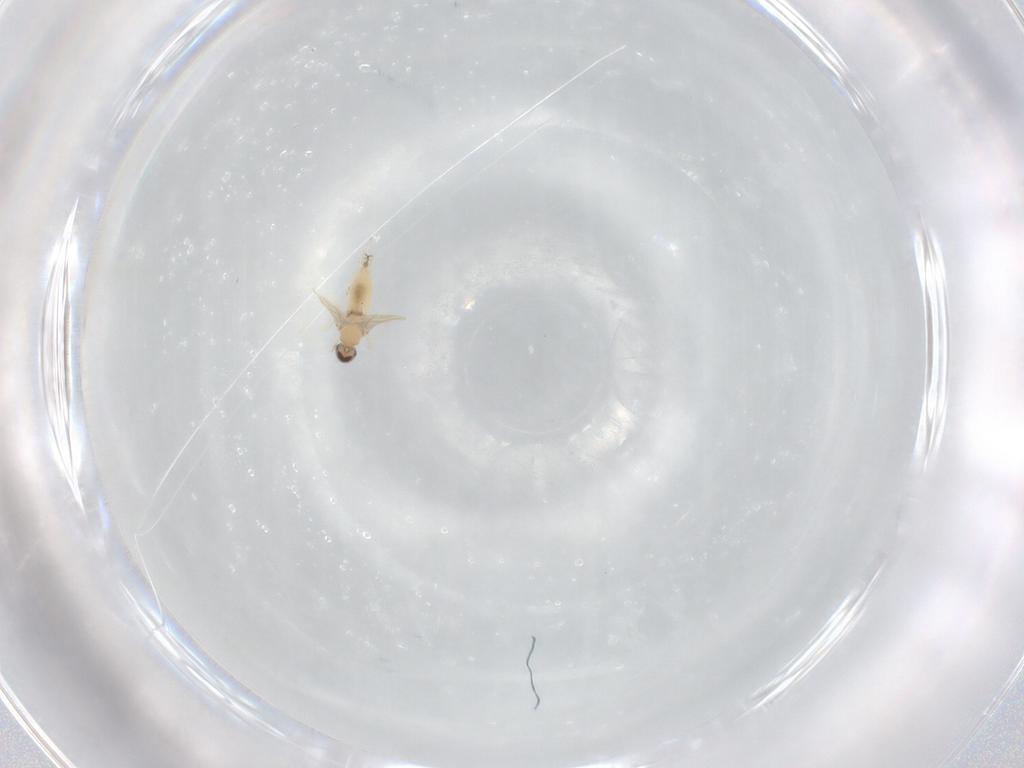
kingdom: Animalia
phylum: Arthropoda
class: Insecta
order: Diptera
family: Cecidomyiidae
